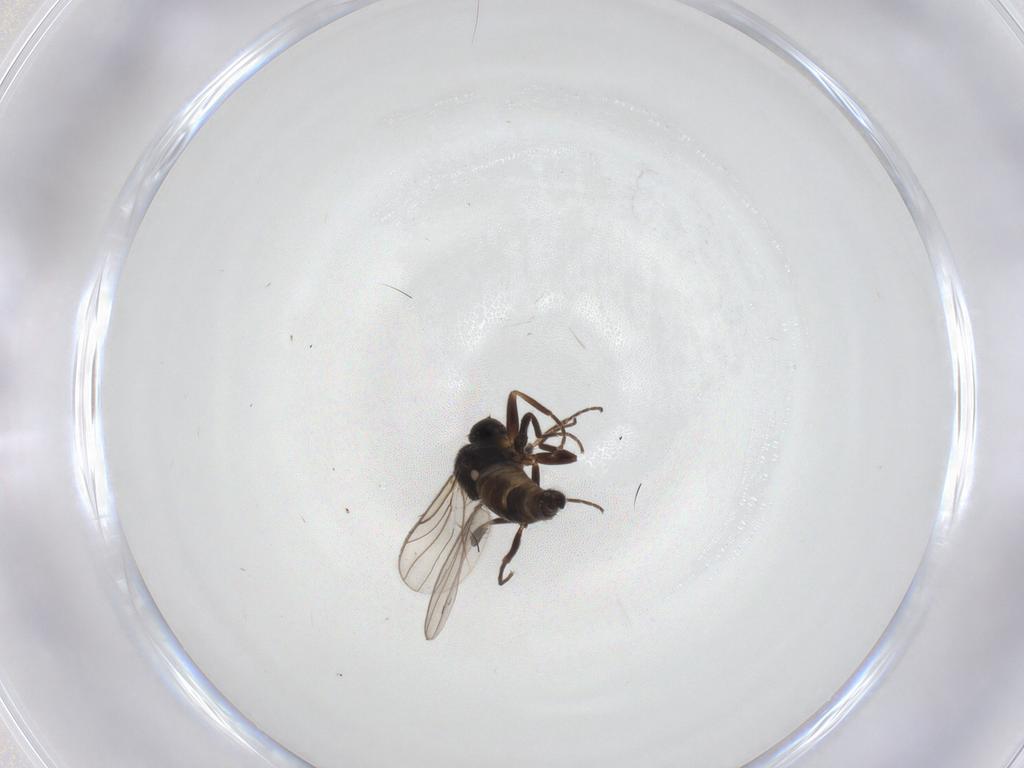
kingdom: Animalia
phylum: Arthropoda
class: Insecta
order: Diptera
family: Hybotidae
